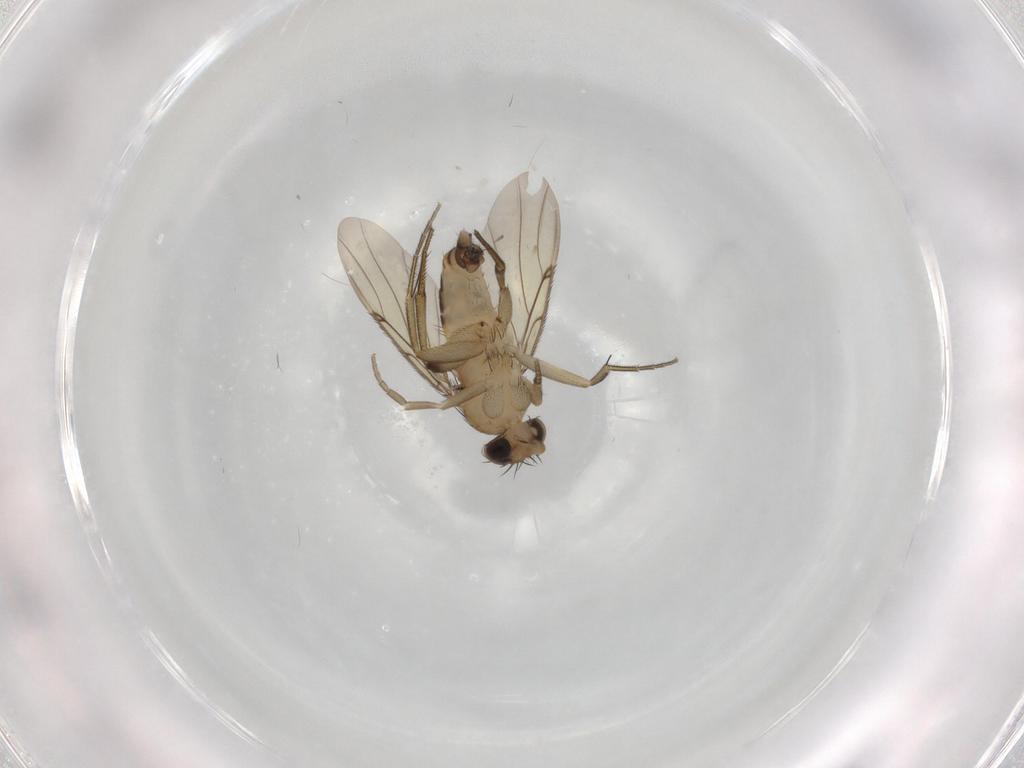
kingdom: Animalia
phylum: Arthropoda
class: Insecta
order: Diptera
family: Phoridae
